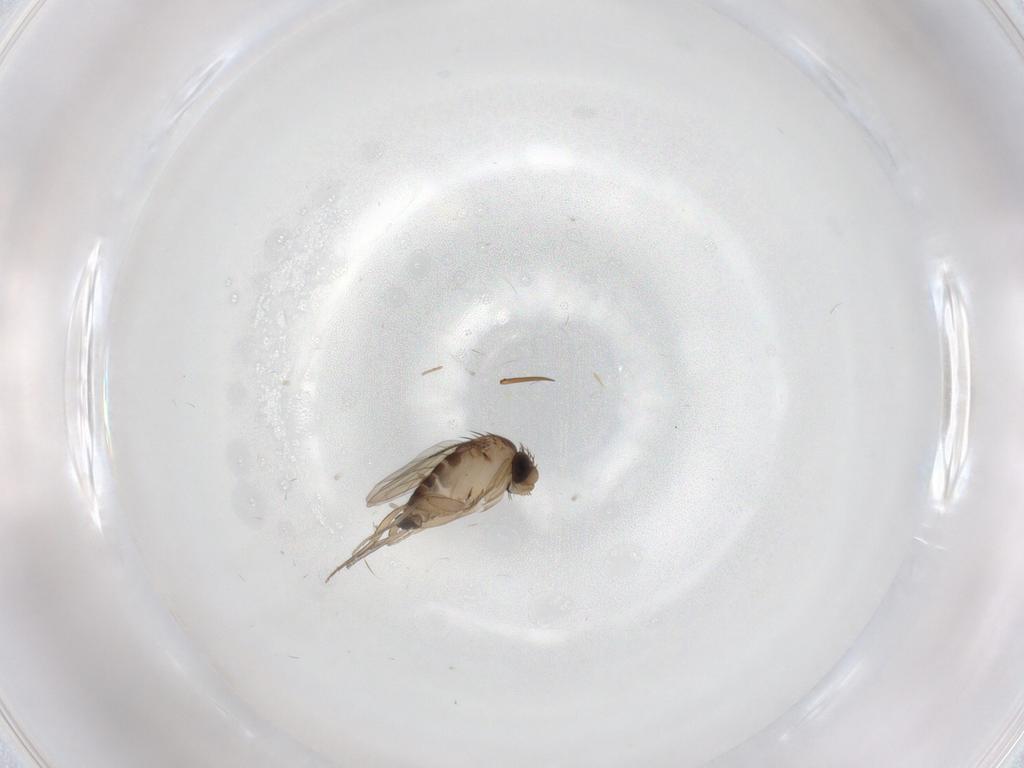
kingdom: Animalia
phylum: Arthropoda
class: Insecta
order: Diptera
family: Phoridae
